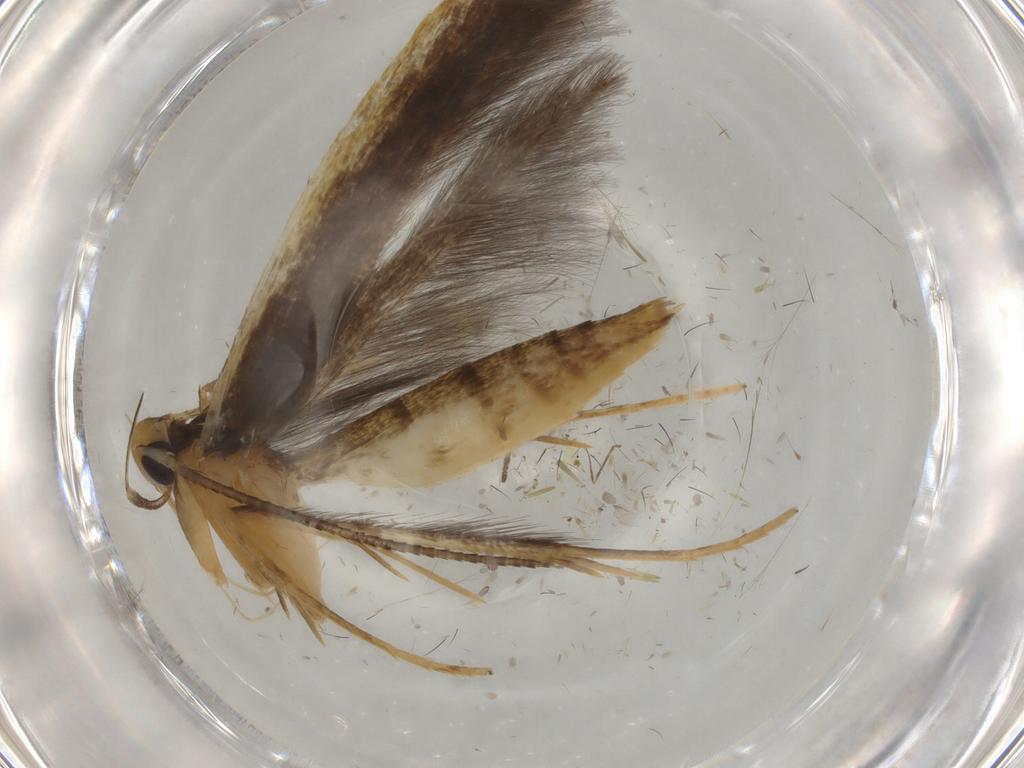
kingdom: Animalia
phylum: Arthropoda
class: Insecta
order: Lepidoptera
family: Pterolonchidae
